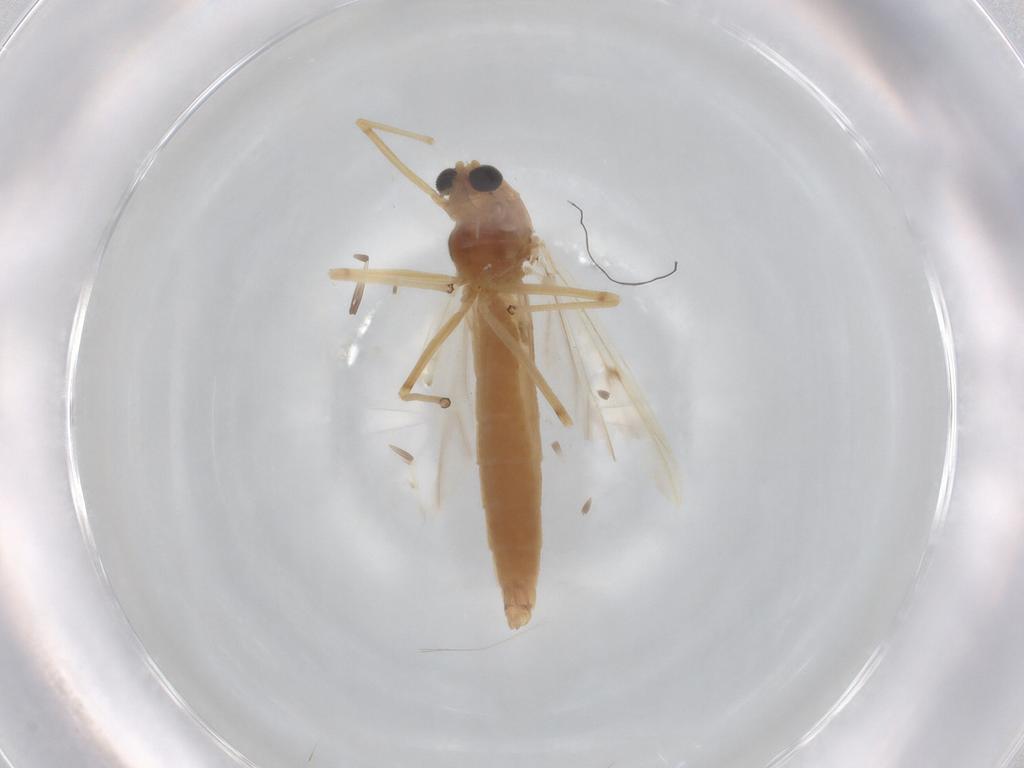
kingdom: Animalia
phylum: Arthropoda
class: Insecta
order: Diptera
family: Chironomidae
